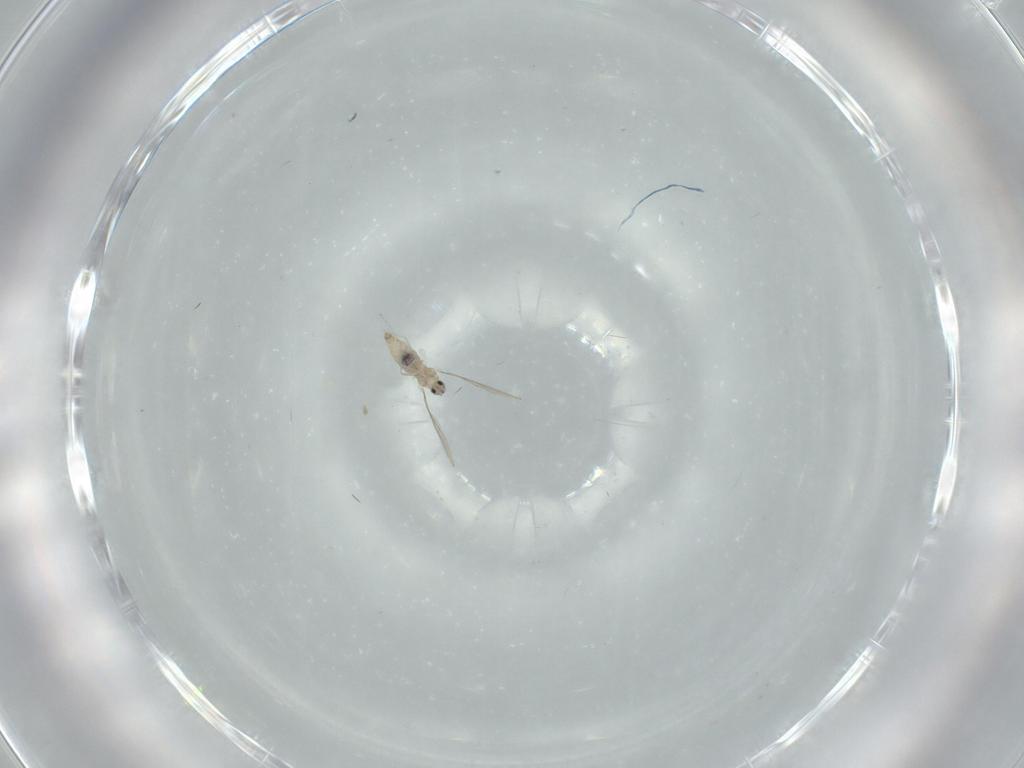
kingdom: Animalia
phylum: Arthropoda
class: Insecta
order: Diptera
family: Cecidomyiidae
